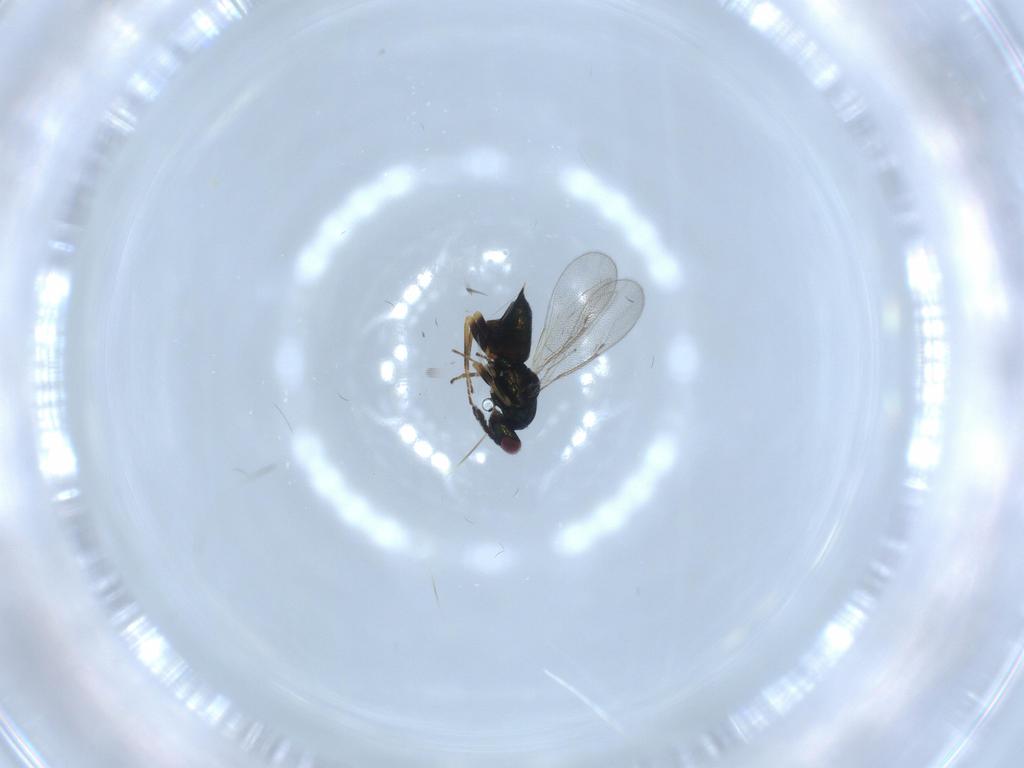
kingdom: Animalia
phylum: Arthropoda
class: Insecta
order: Hymenoptera
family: Eulophidae
